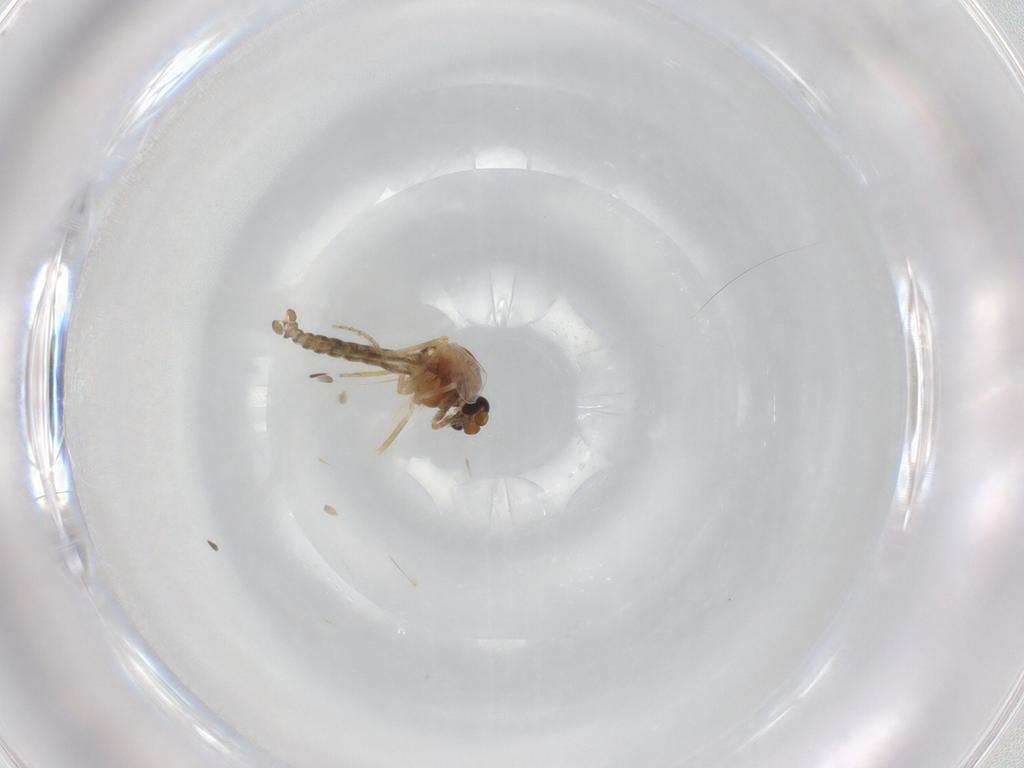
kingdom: Animalia
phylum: Arthropoda
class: Insecta
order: Diptera
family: Ceratopogonidae
